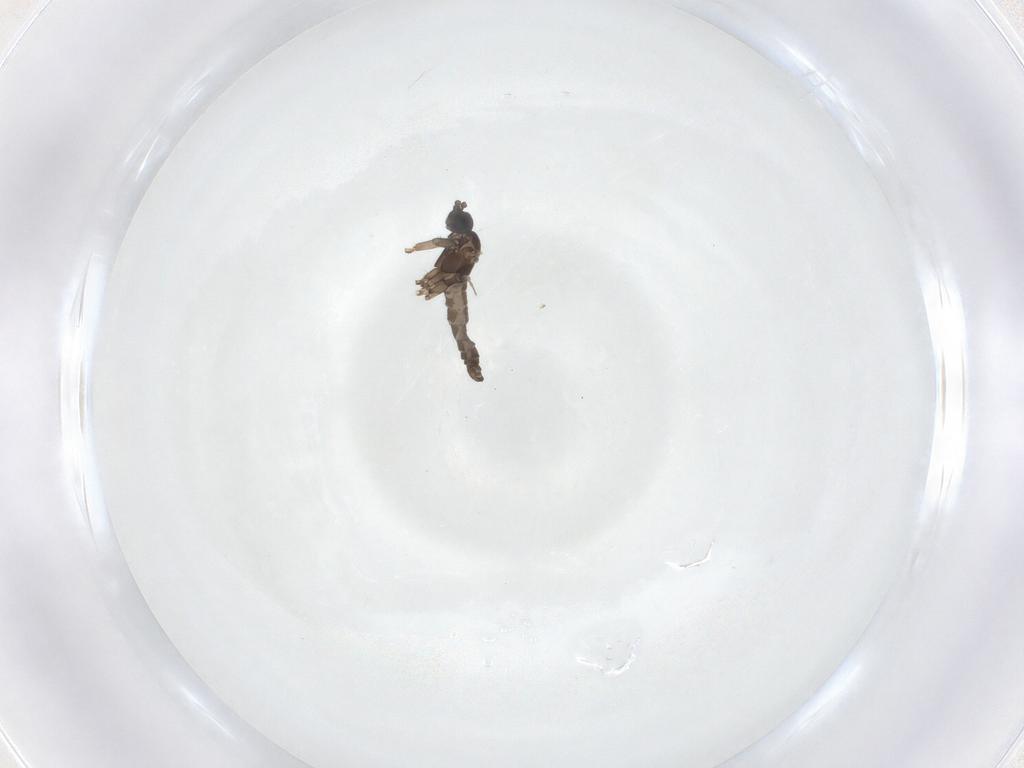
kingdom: Animalia
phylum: Arthropoda
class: Insecta
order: Diptera
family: Sciaridae
